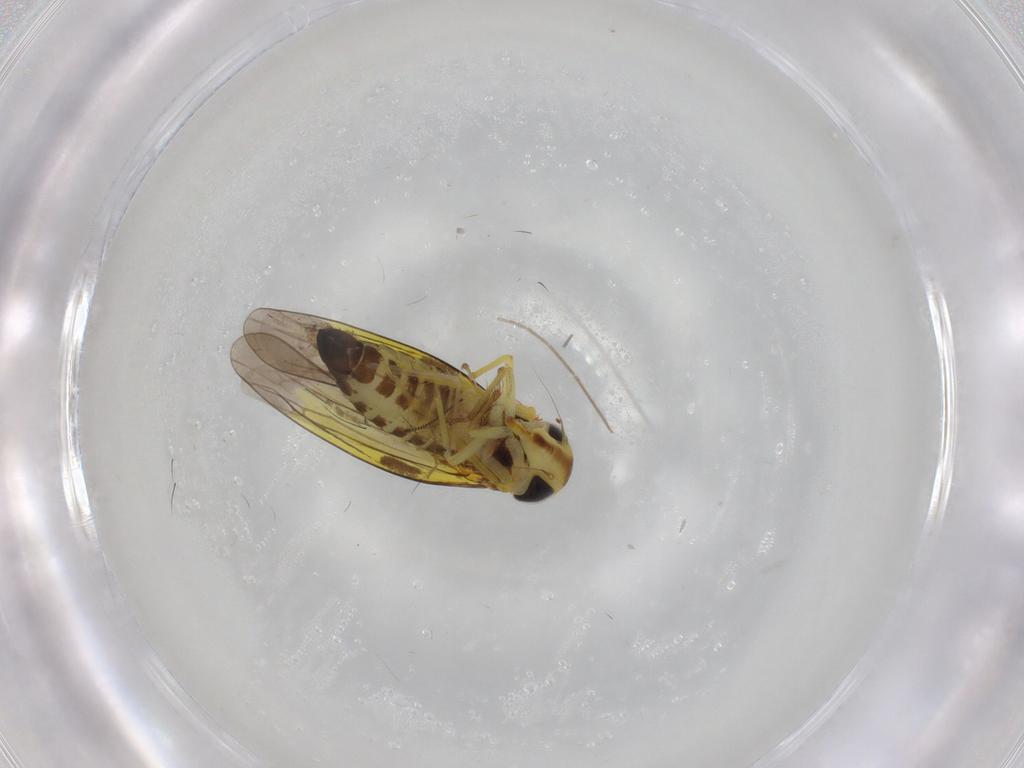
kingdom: Animalia
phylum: Arthropoda
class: Insecta
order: Hemiptera
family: Cicadellidae
